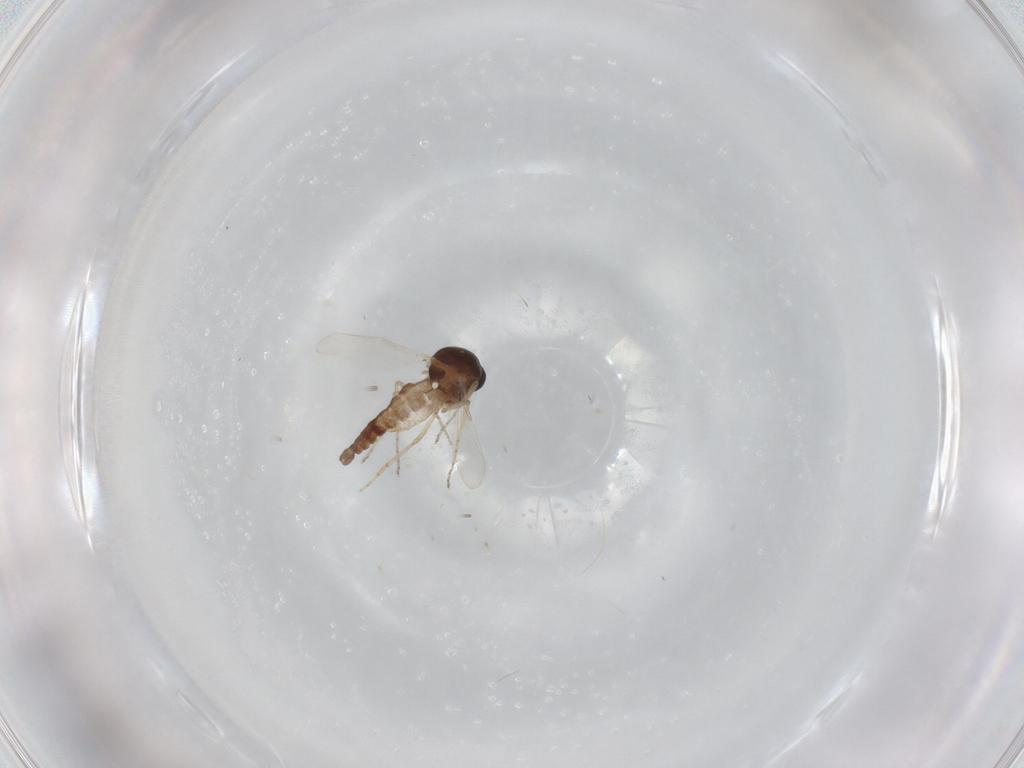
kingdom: Animalia
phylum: Arthropoda
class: Insecta
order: Diptera
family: Ceratopogonidae
